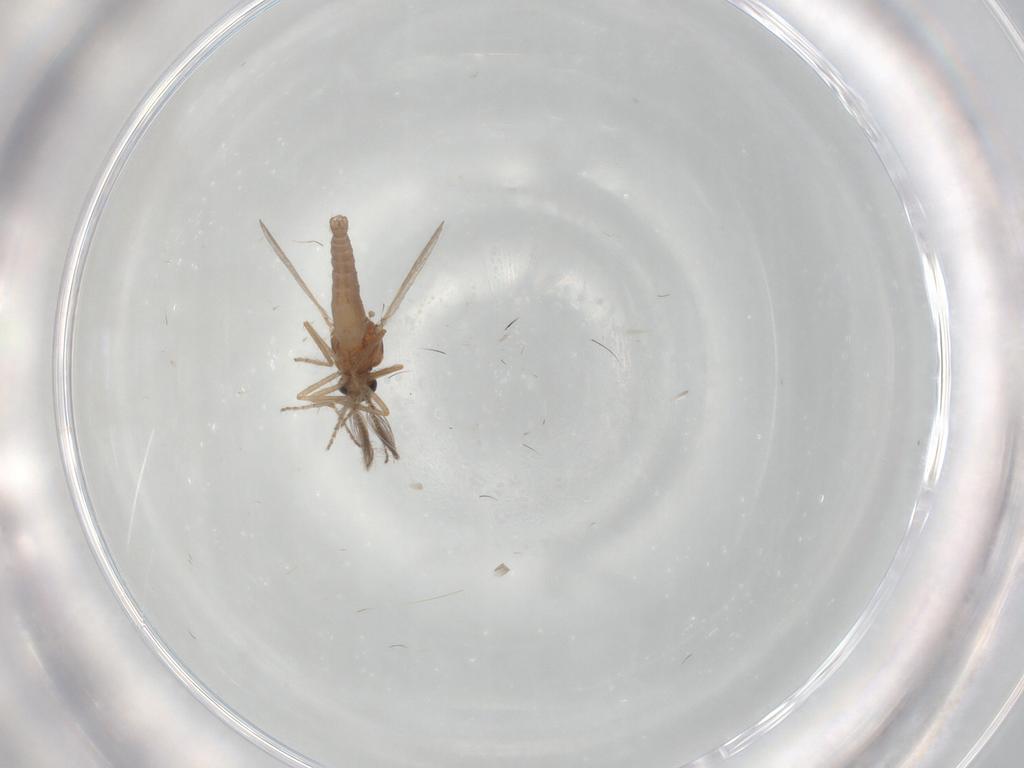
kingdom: Animalia
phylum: Arthropoda
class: Insecta
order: Diptera
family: Ceratopogonidae
